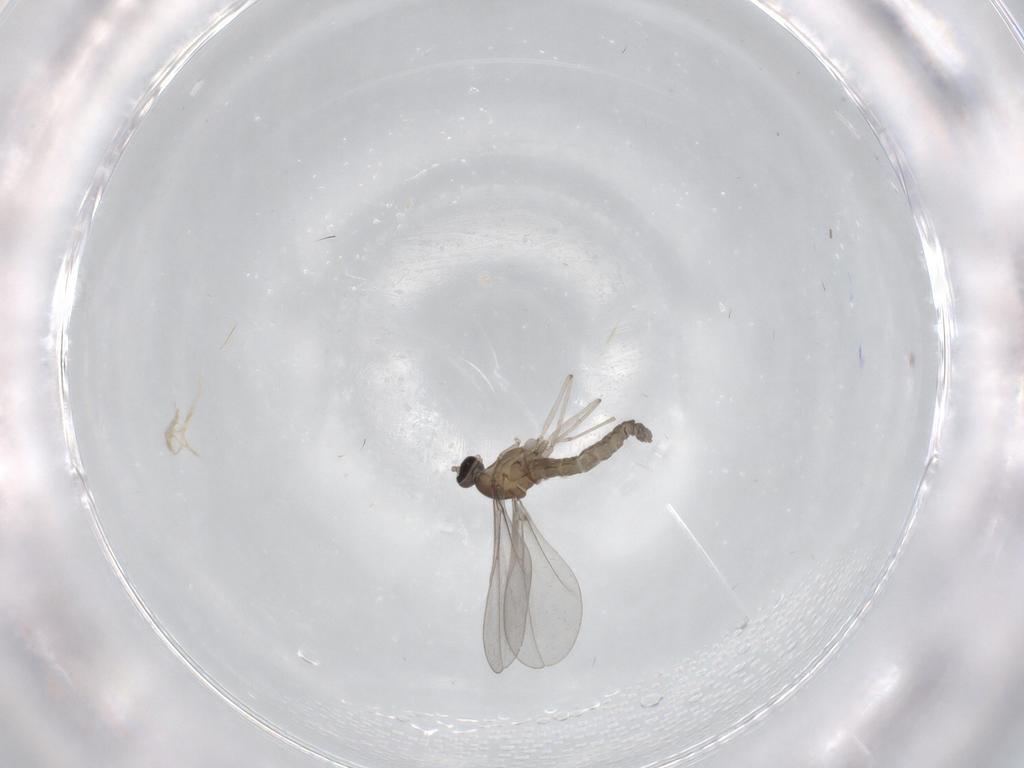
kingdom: Animalia
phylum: Arthropoda
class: Insecta
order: Diptera
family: Cecidomyiidae
